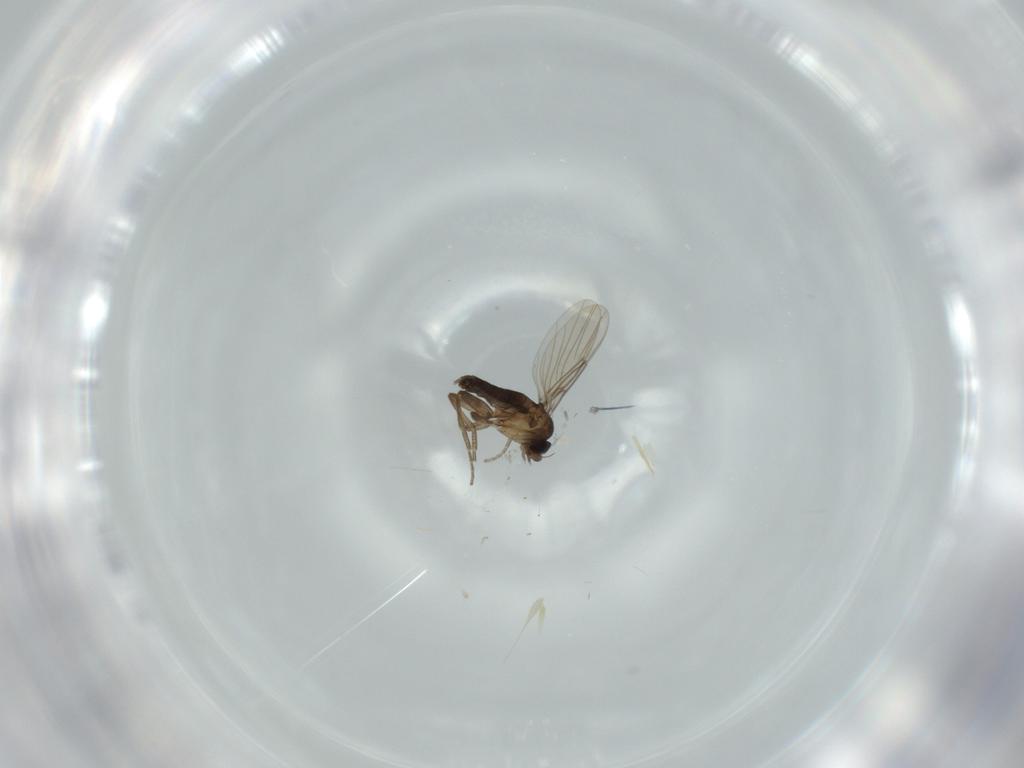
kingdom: Animalia
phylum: Arthropoda
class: Insecta
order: Diptera
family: Phoridae
